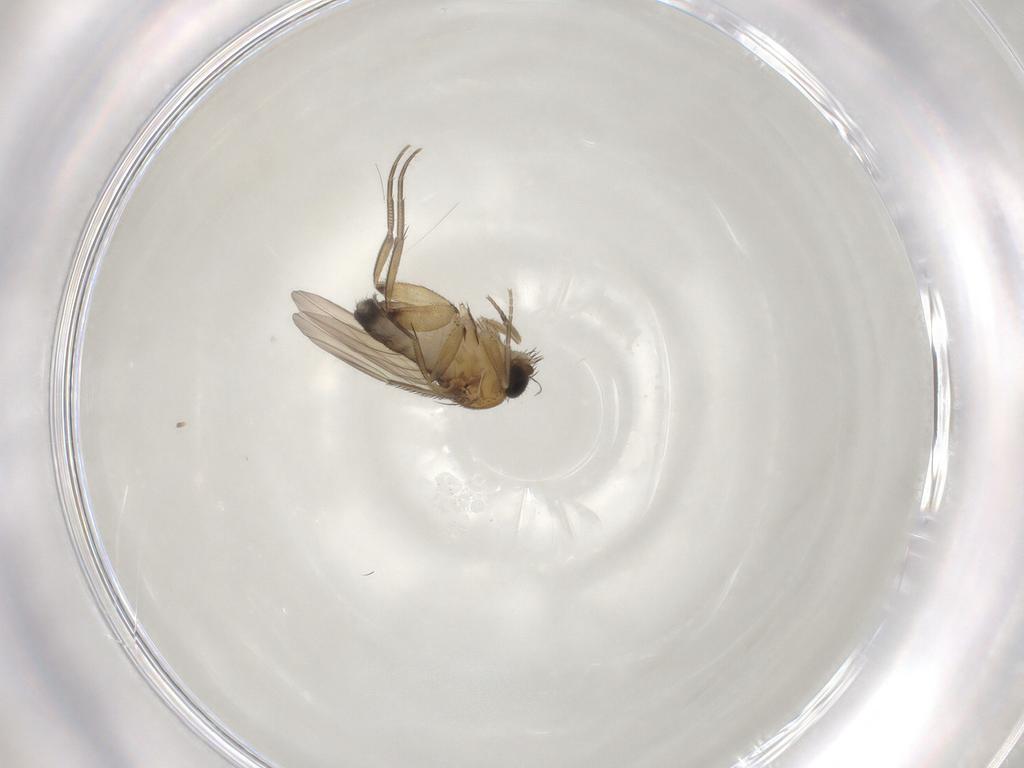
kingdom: Animalia
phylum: Arthropoda
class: Insecta
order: Diptera
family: Phoridae
